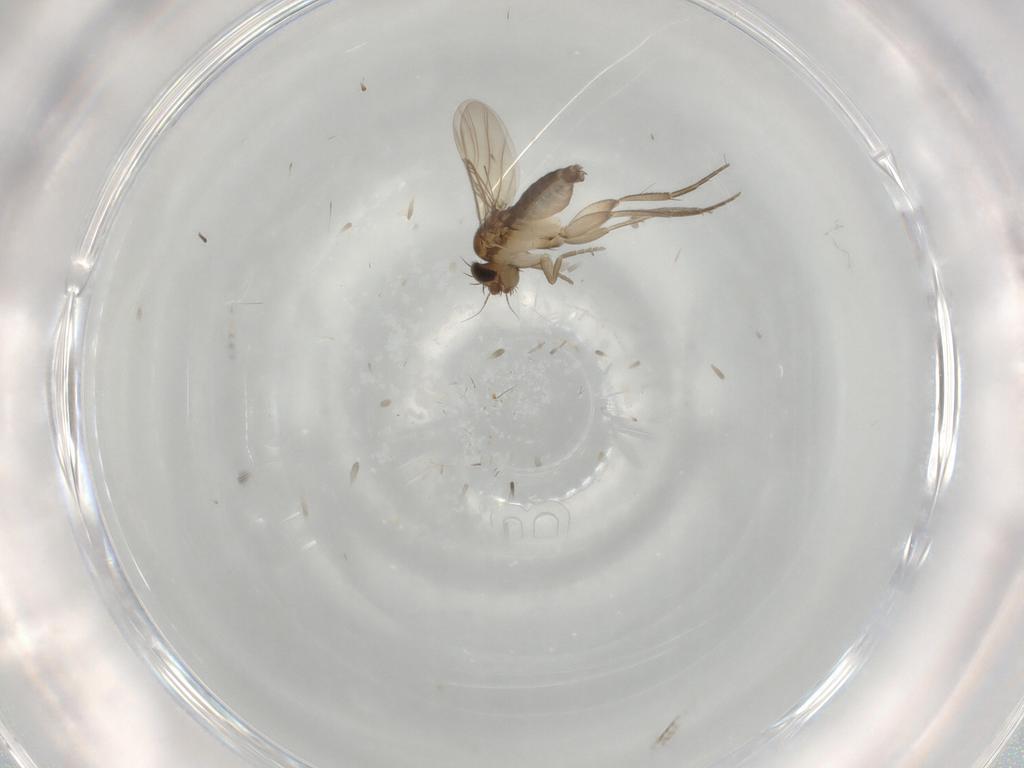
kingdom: Animalia
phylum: Arthropoda
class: Insecta
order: Diptera
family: Phoridae
